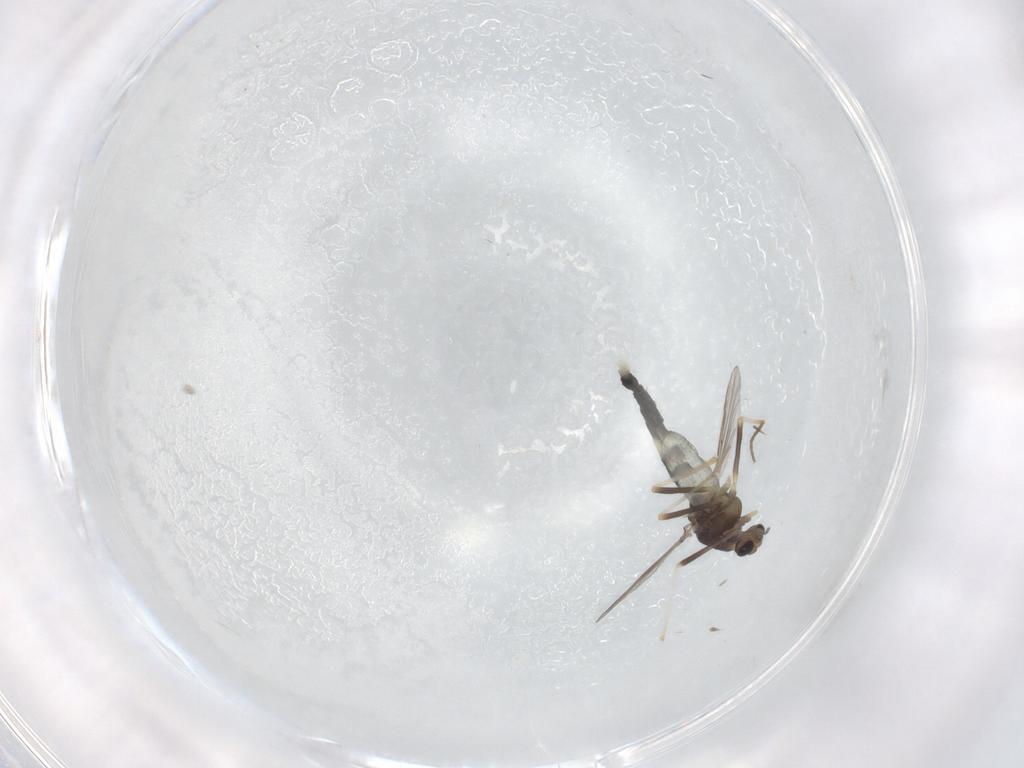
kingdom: Animalia
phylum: Arthropoda
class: Insecta
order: Diptera
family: Chironomidae
